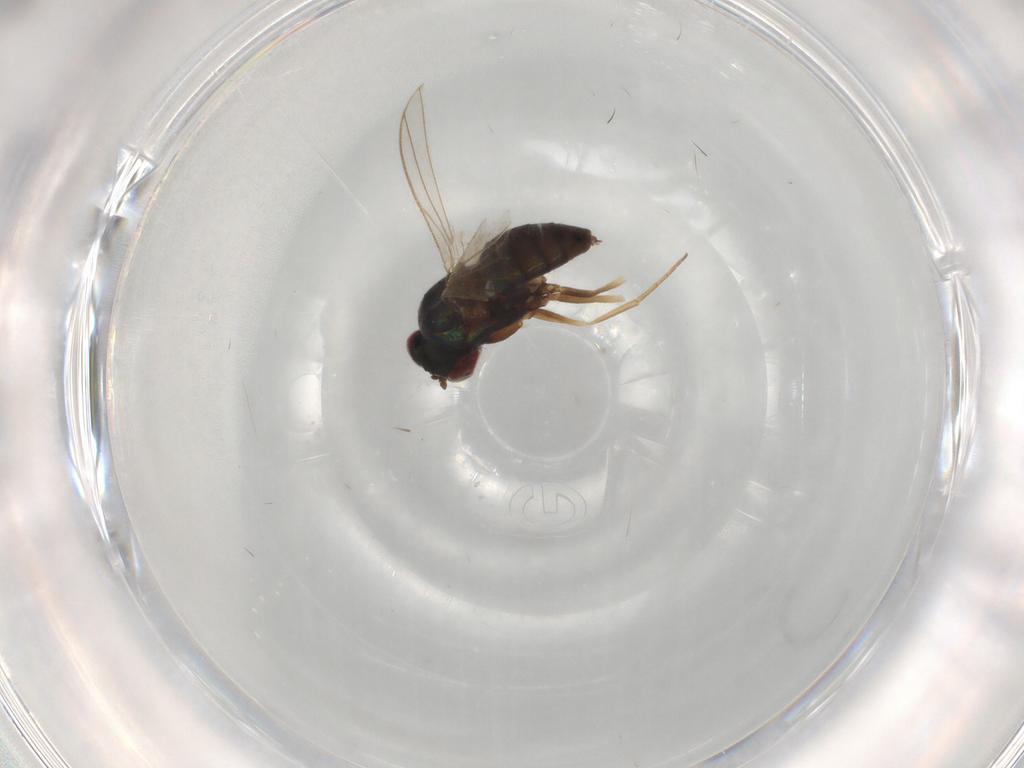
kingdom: Animalia
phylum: Arthropoda
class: Insecta
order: Diptera
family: Dolichopodidae
